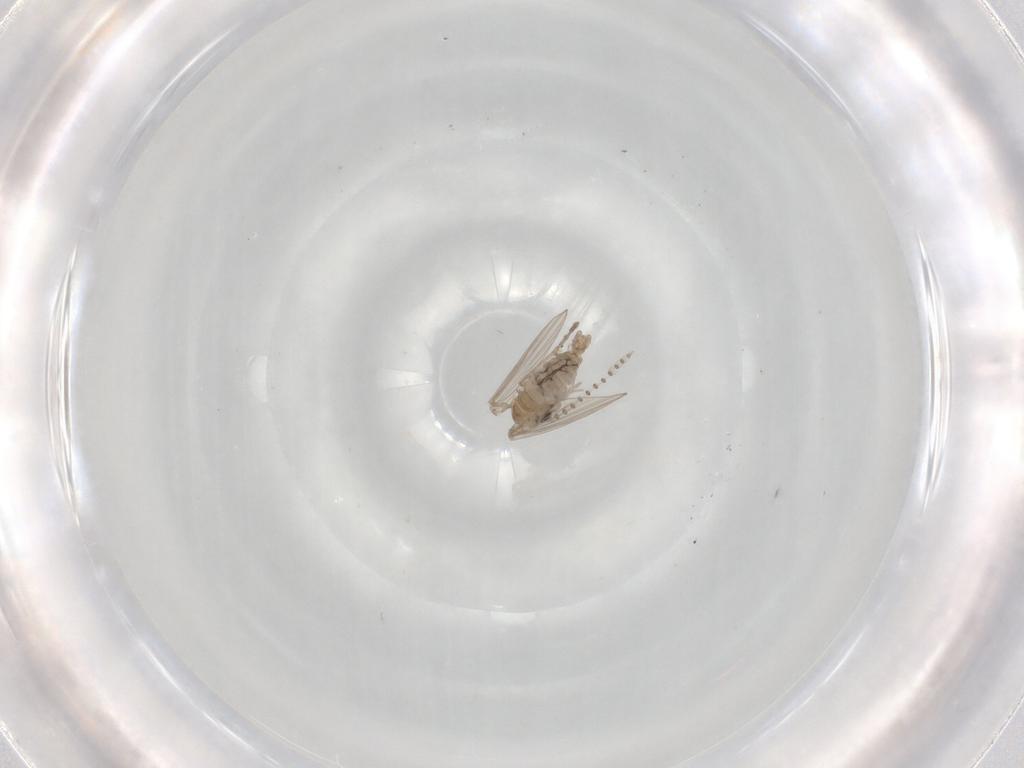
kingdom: Animalia
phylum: Arthropoda
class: Insecta
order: Diptera
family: Psychodidae
